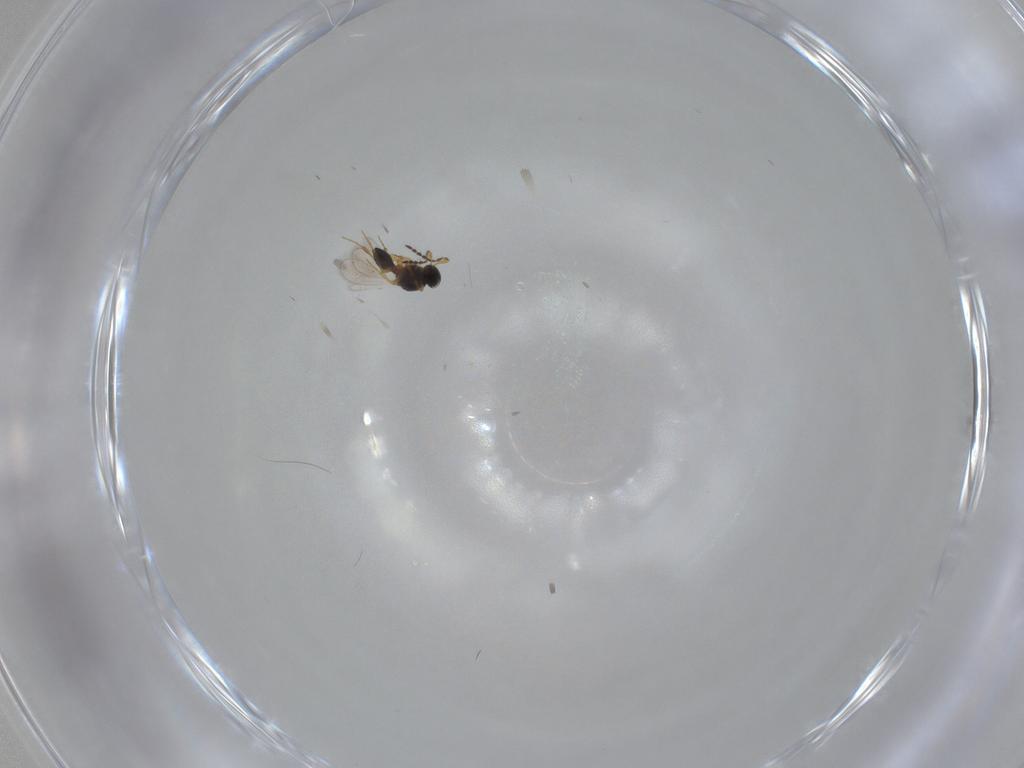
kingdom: Animalia
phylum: Arthropoda
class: Insecta
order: Hymenoptera
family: Platygastridae
